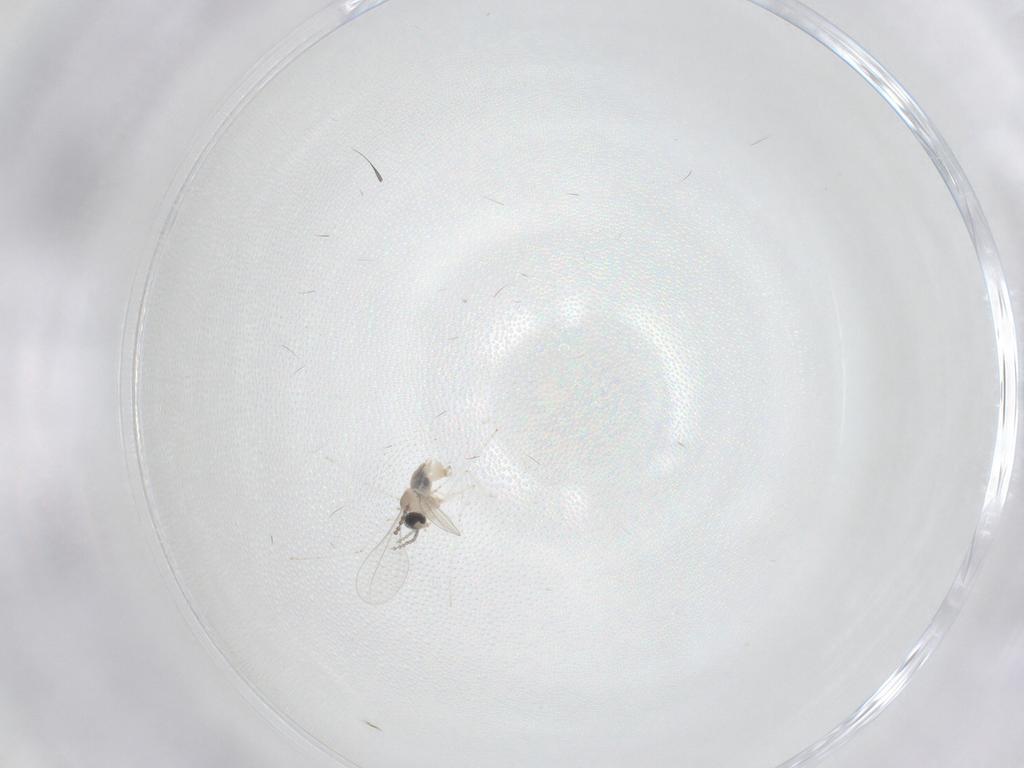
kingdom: Animalia
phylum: Arthropoda
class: Insecta
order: Diptera
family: Cecidomyiidae
